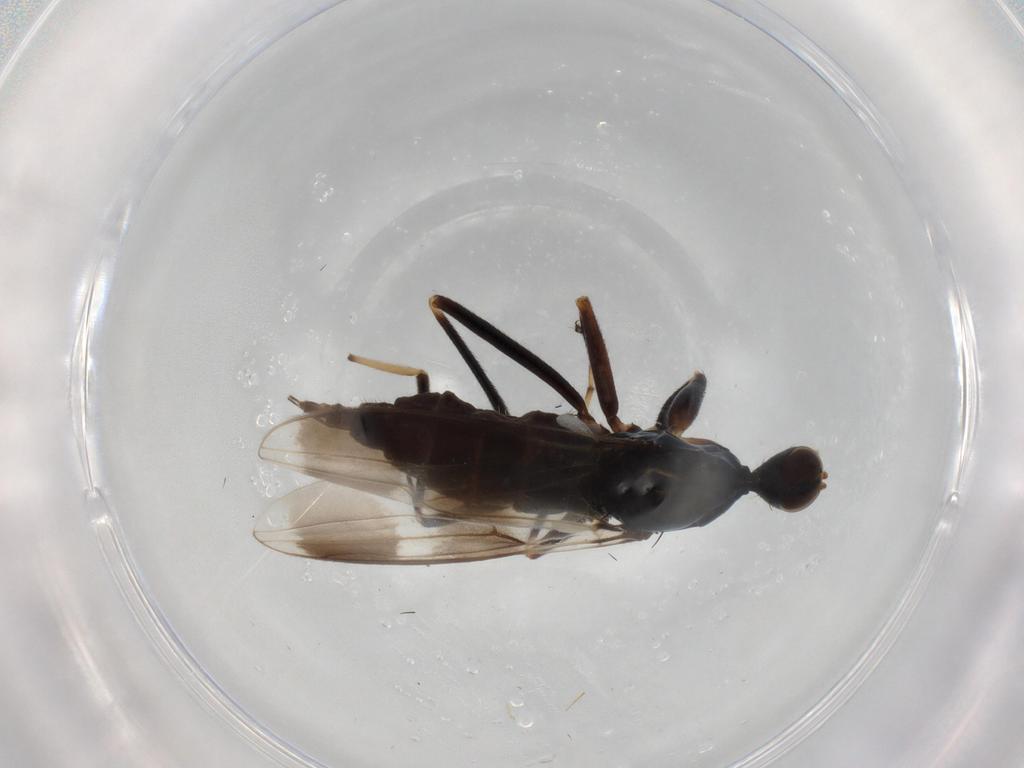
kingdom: Animalia
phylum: Arthropoda
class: Insecta
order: Diptera
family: Hybotidae
